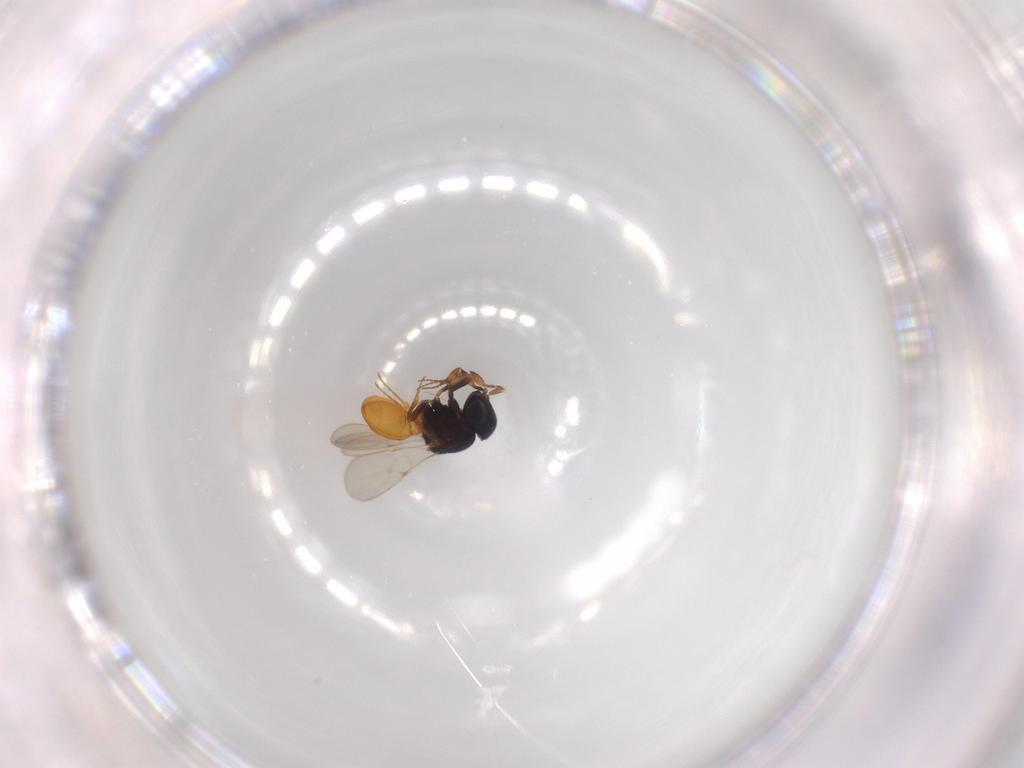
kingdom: Animalia
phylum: Arthropoda
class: Insecta
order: Hymenoptera
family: Scelionidae
